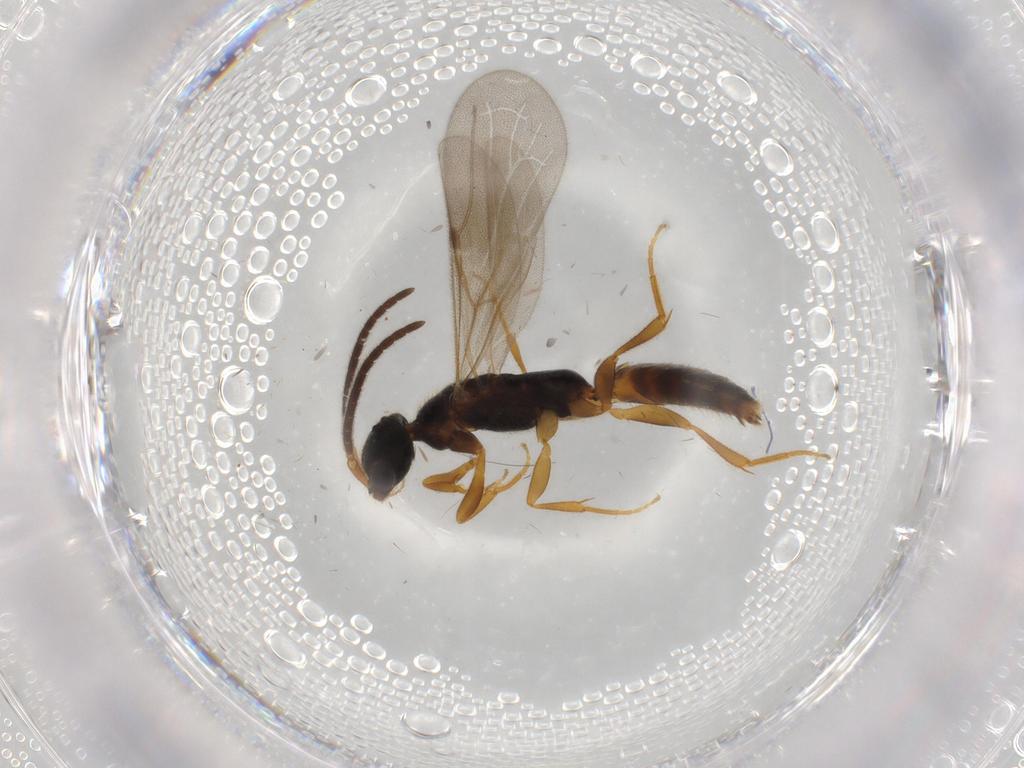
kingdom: Animalia
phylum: Arthropoda
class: Insecta
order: Hymenoptera
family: Bethylidae
